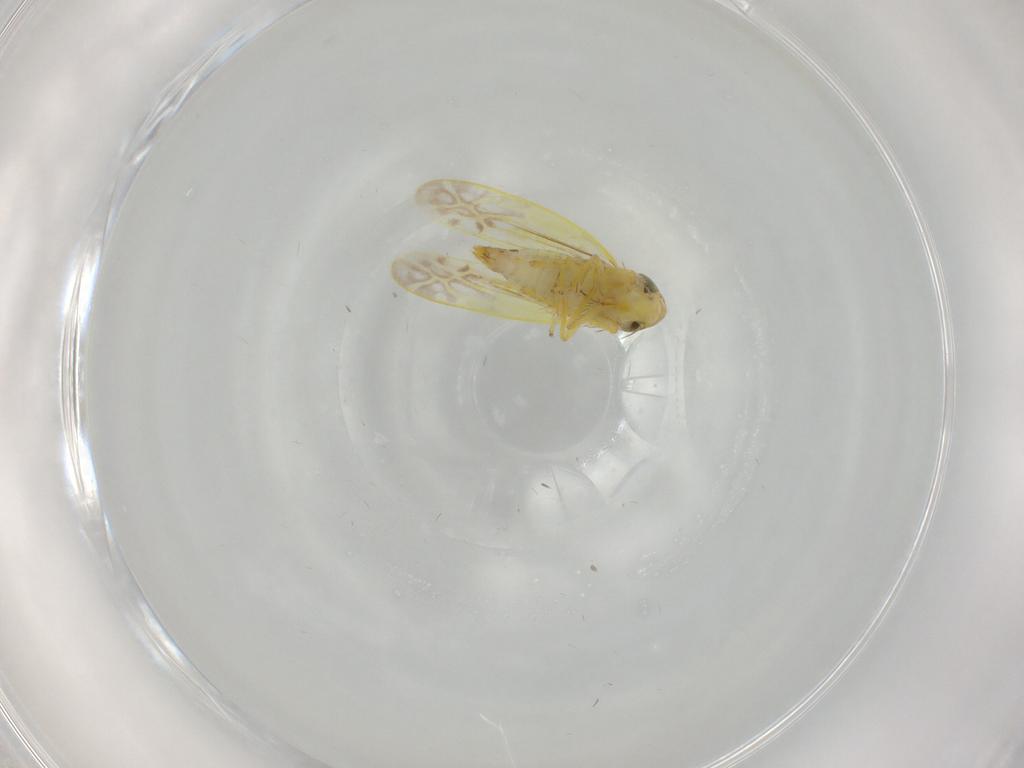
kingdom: Animalia
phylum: Arthropoda
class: Insecta
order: Hemiptera
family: Cicadellidae
